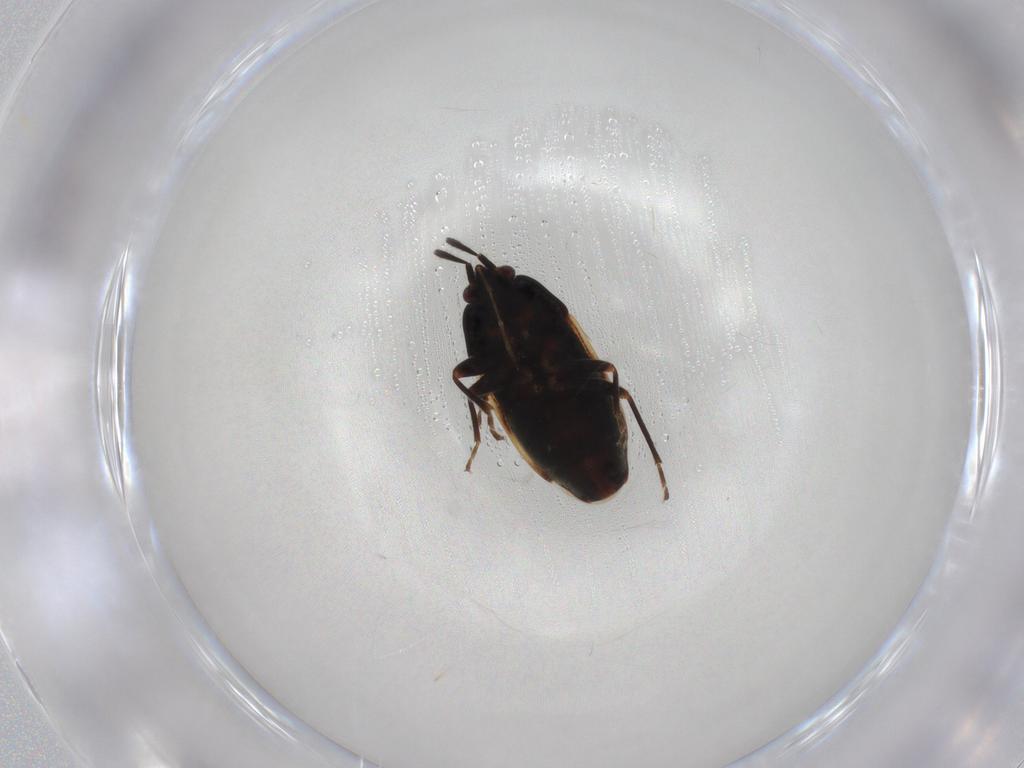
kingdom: Animalia
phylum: Arthropoda
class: Insecta
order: Hemiptera
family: Rhyparochromidae
